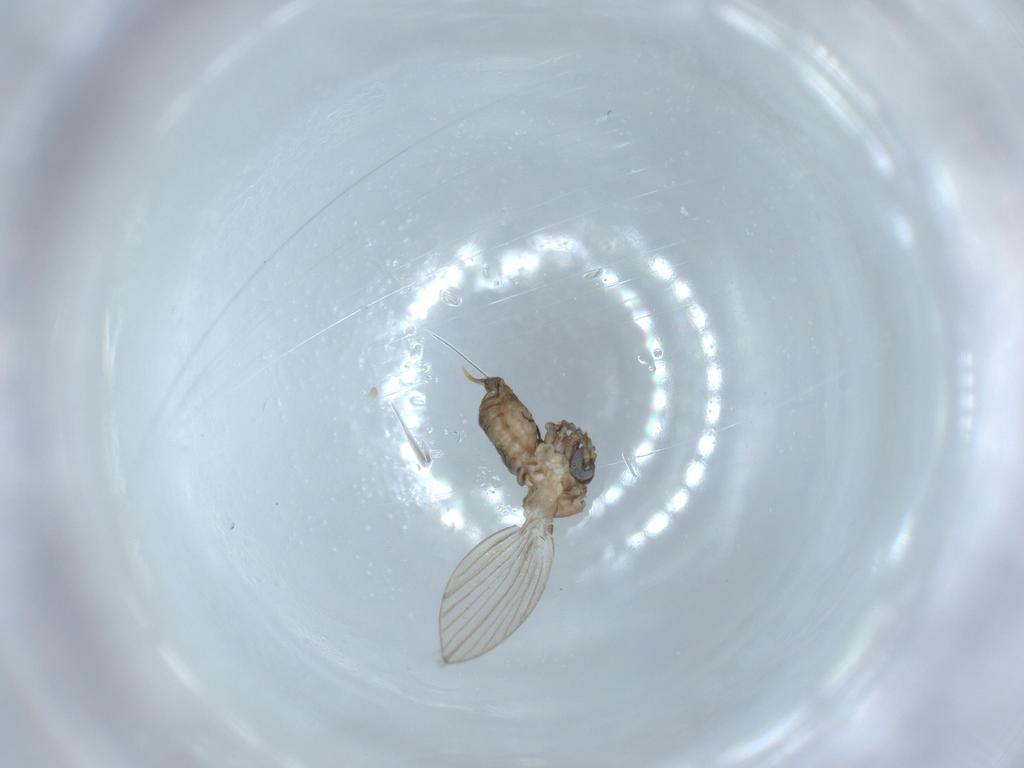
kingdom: Animalia
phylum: Arthropoda
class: Insecta
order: Diptera
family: Psychodidae
